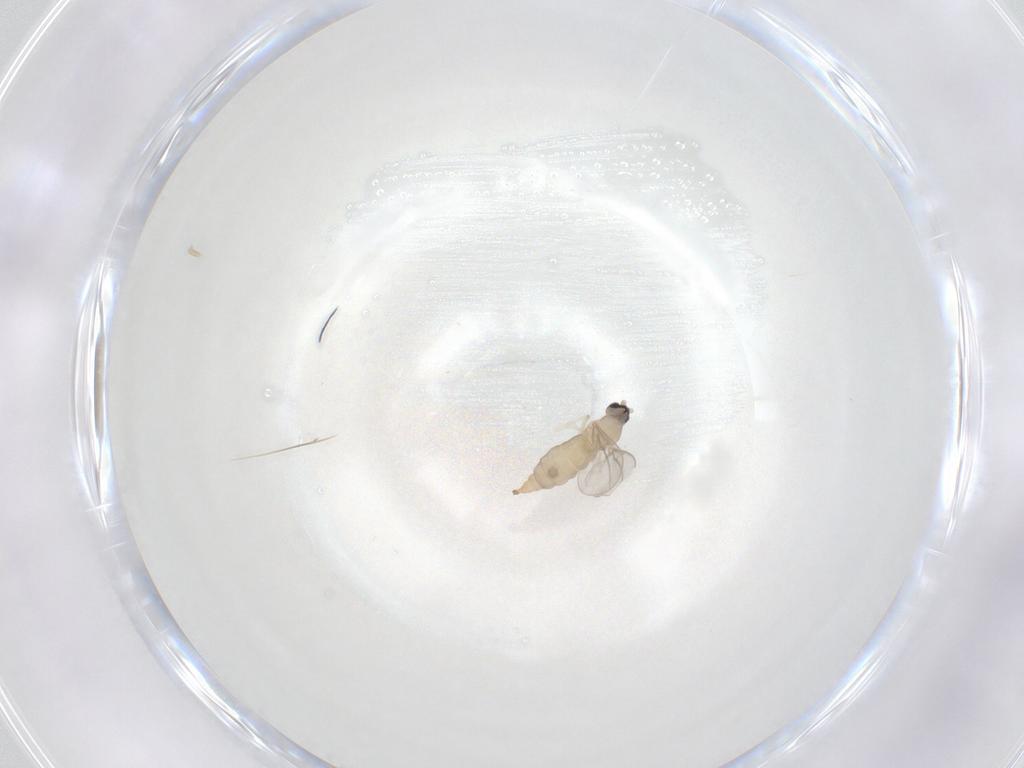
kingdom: Animalia
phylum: Arthropoda
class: Insecta
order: Diptera
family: Cecidomyiidae
